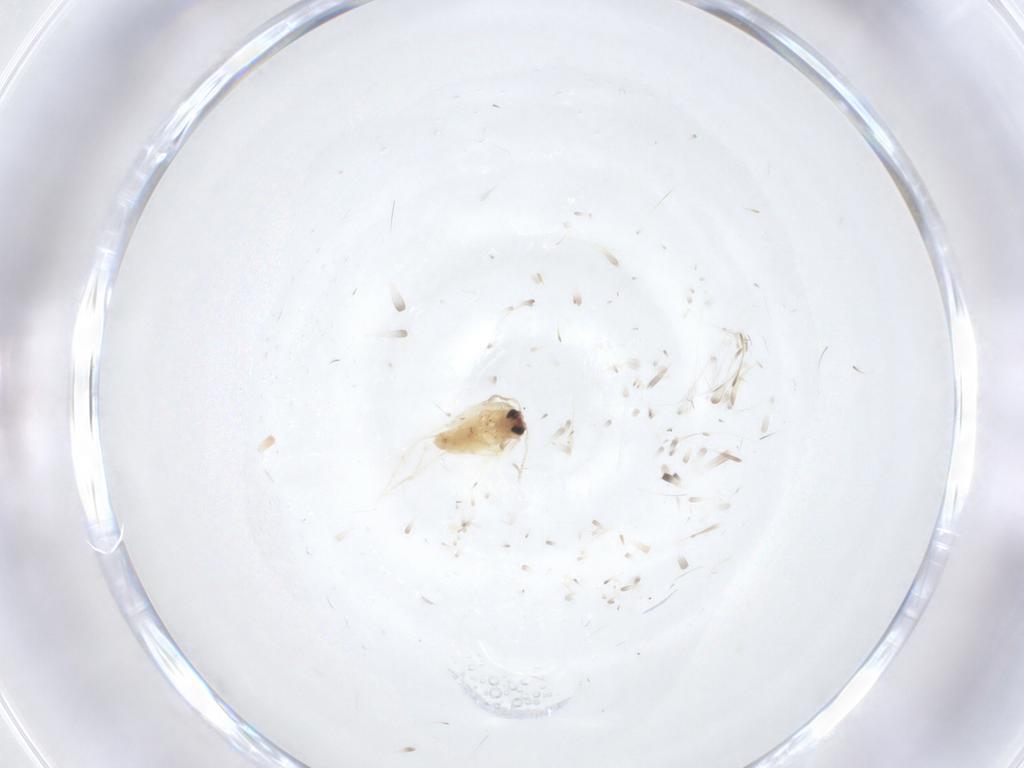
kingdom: Animalia
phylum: Arthropoda
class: Insecta
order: Lepidoptera
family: Crambidae
